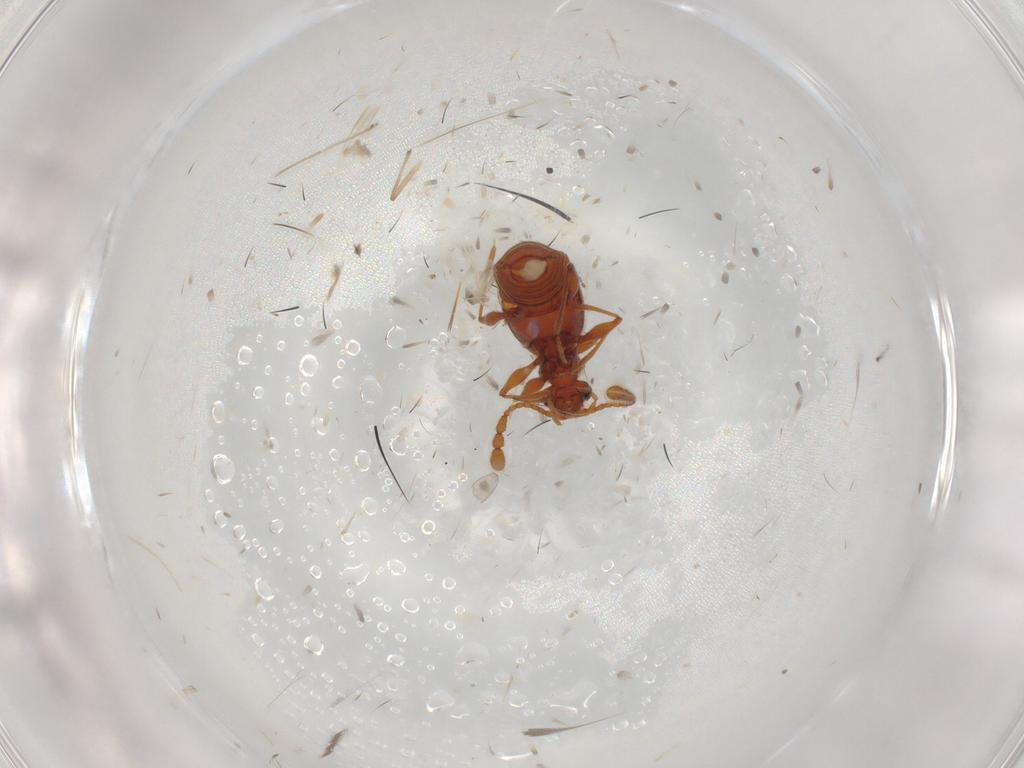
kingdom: Animalia
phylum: Arthropoda
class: Insecta
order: Coleoptera
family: Staphylinidae
